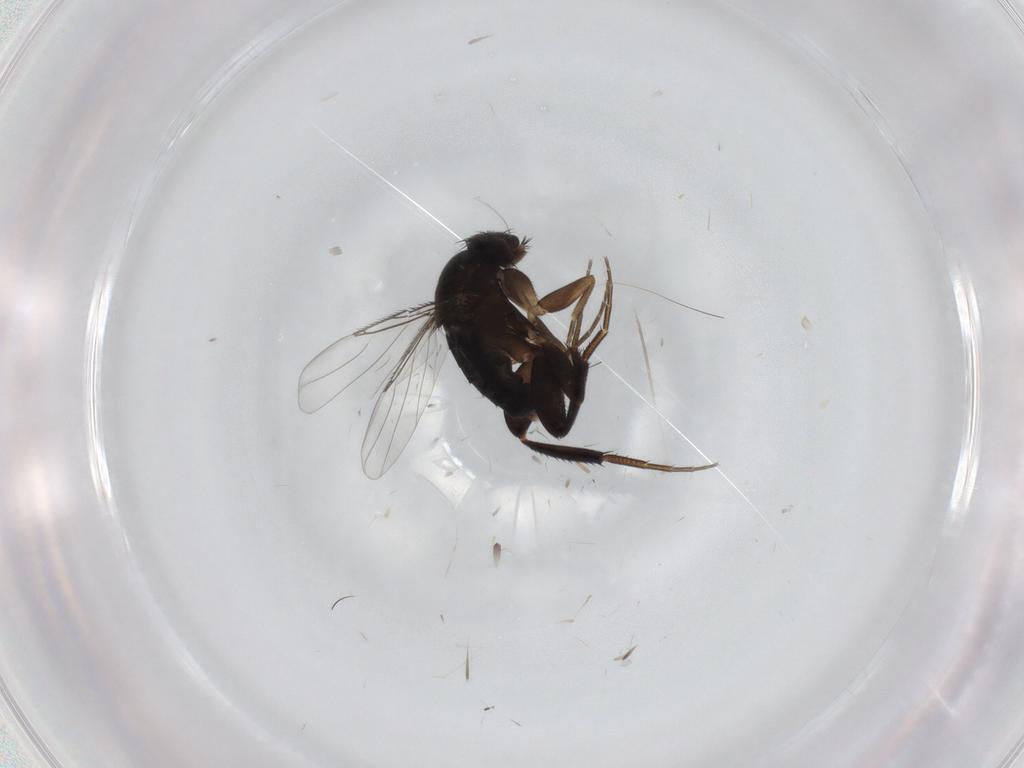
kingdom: Animalia
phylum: Arthropoda
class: Insecta
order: Diptera
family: Phoridae
